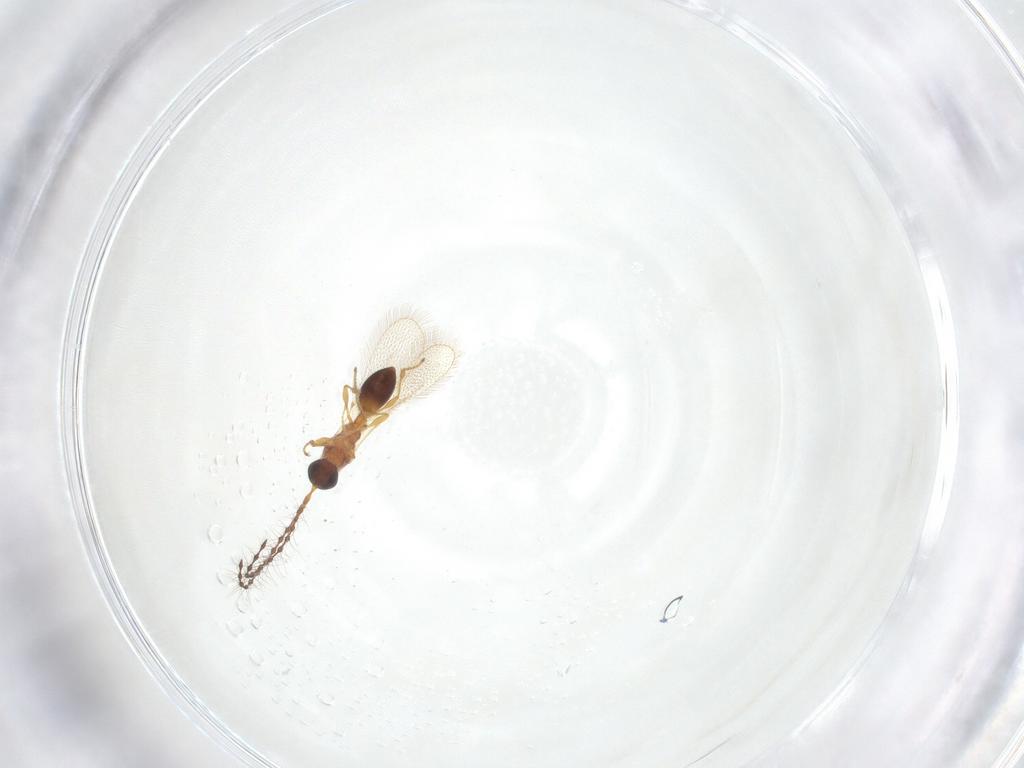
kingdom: Animalia
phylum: Arthropoda
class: Insecta
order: Hymenoptera
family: Diapriidae
